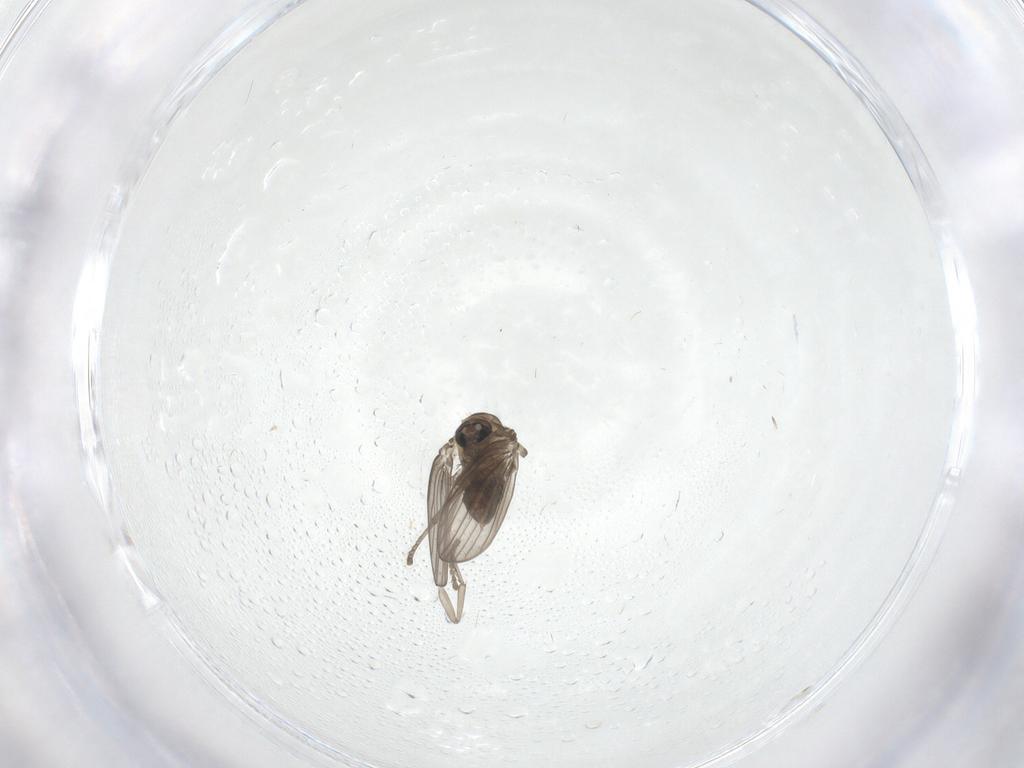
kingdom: Animalia
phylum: Arthropoda
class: Insecta
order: Diptera
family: Psychodidae
